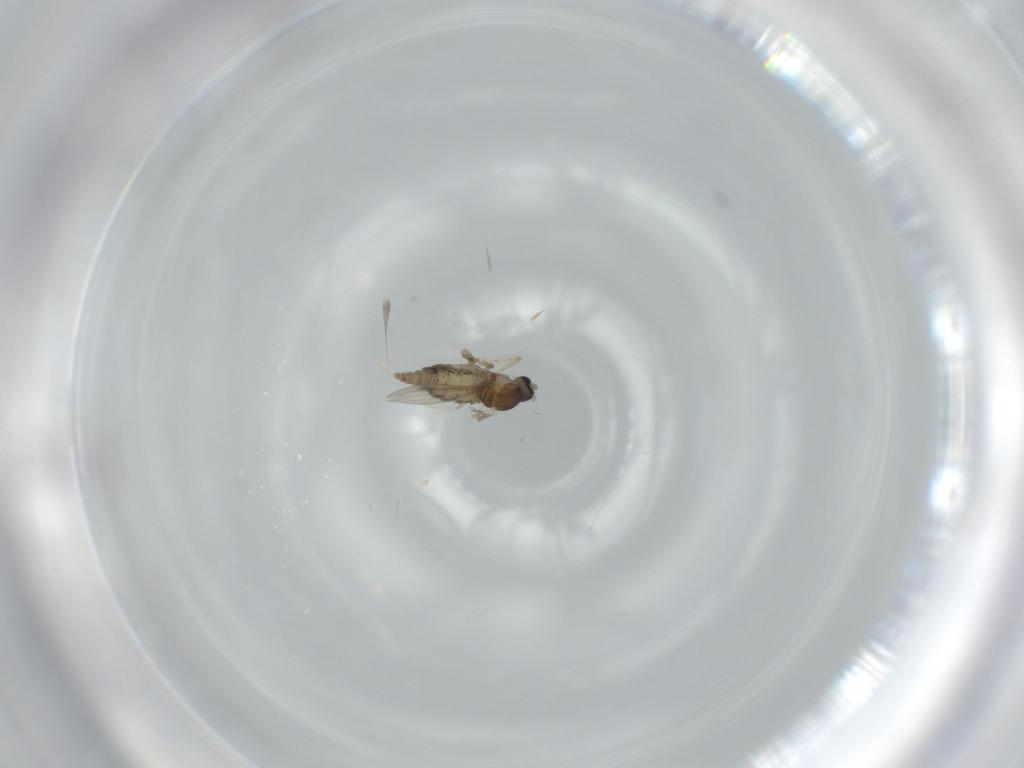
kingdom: Animalia
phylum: Arthropoda
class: Insecta
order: Diptera
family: Cecidomyiidae
